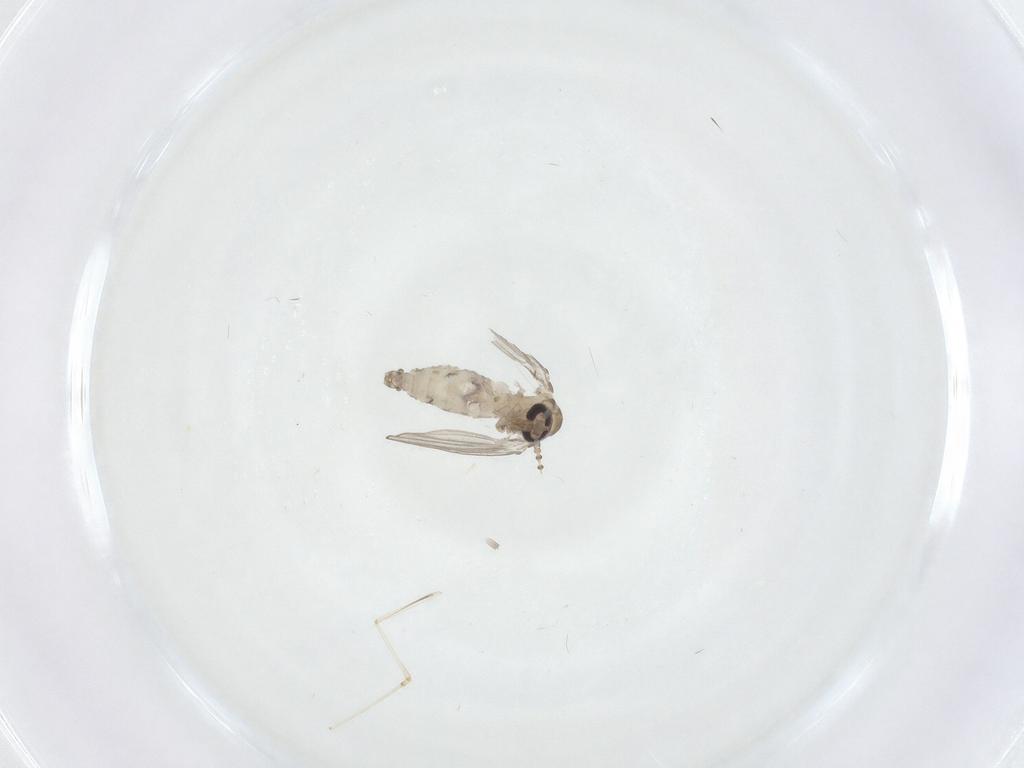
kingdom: Animalia
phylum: Arthropoda
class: Insecta
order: Diptera
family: Psychodidae
